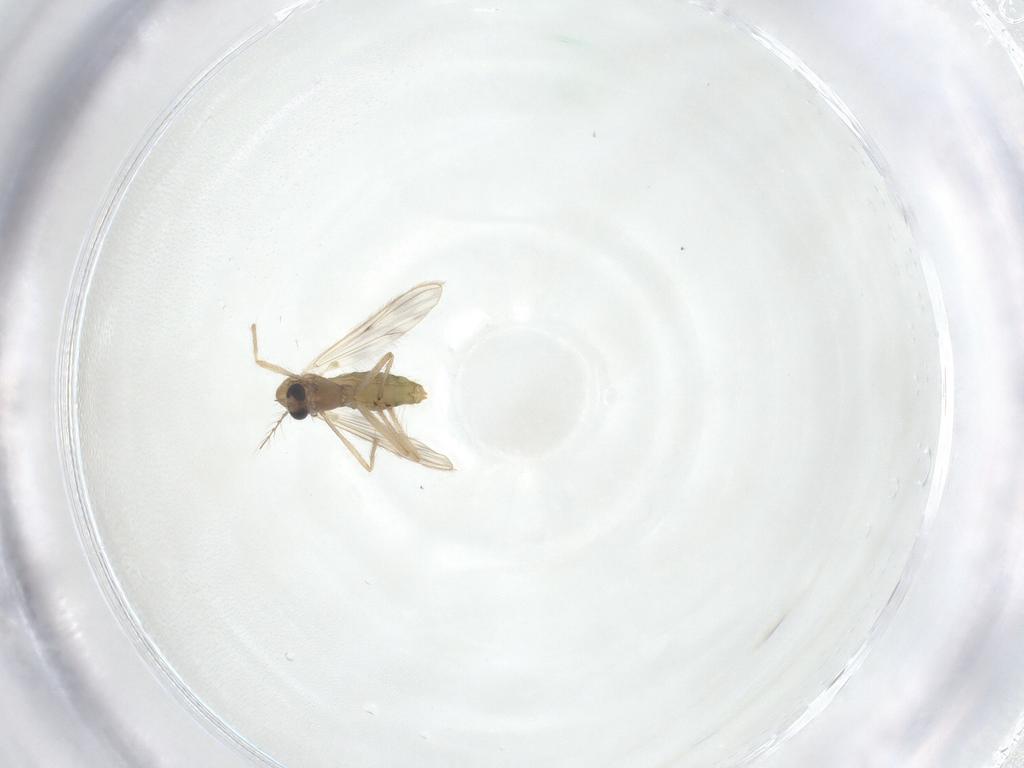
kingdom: Animalia
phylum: Arthropoda
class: Insecta
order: Diptera
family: Chironomidae
